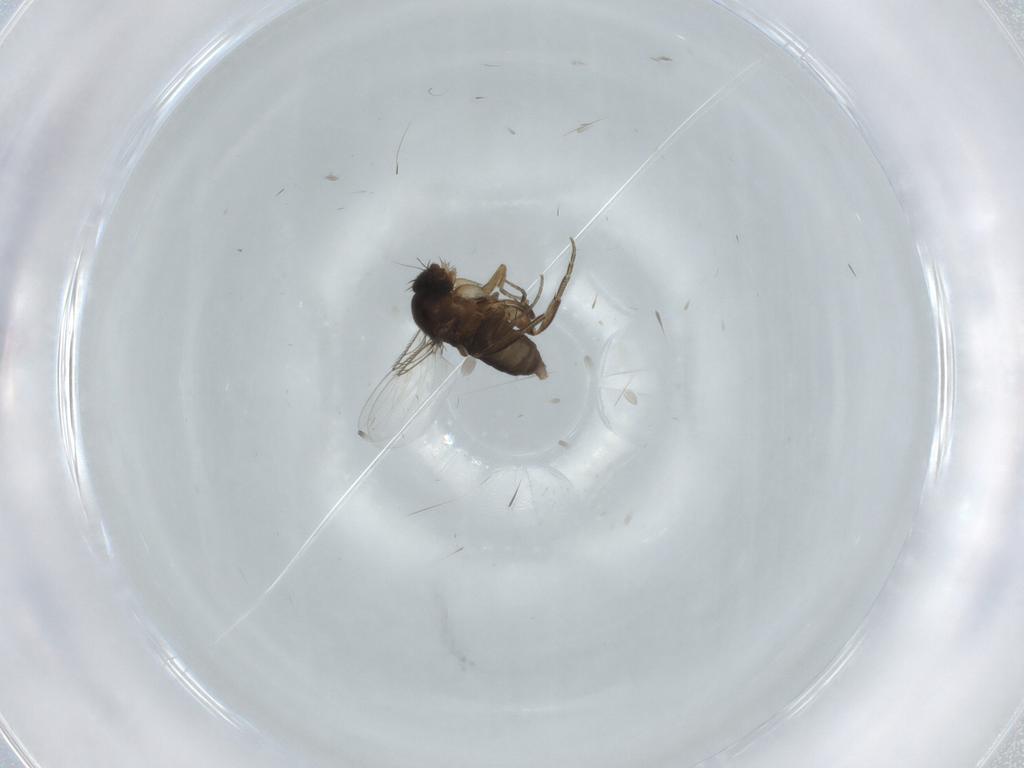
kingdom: Animalia
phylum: Arthropoda
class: Insecta
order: Diptera
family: Phoridae
